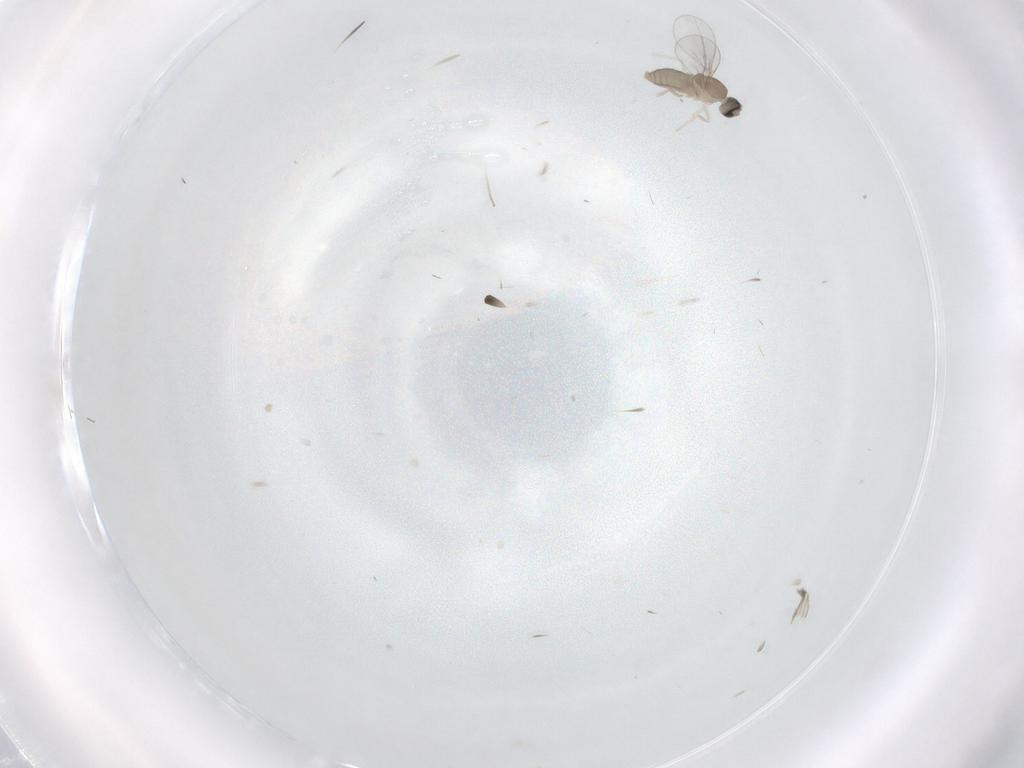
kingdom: Animalia
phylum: Arthropoda
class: Insecta
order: Diptera
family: Cecidomyiidae
